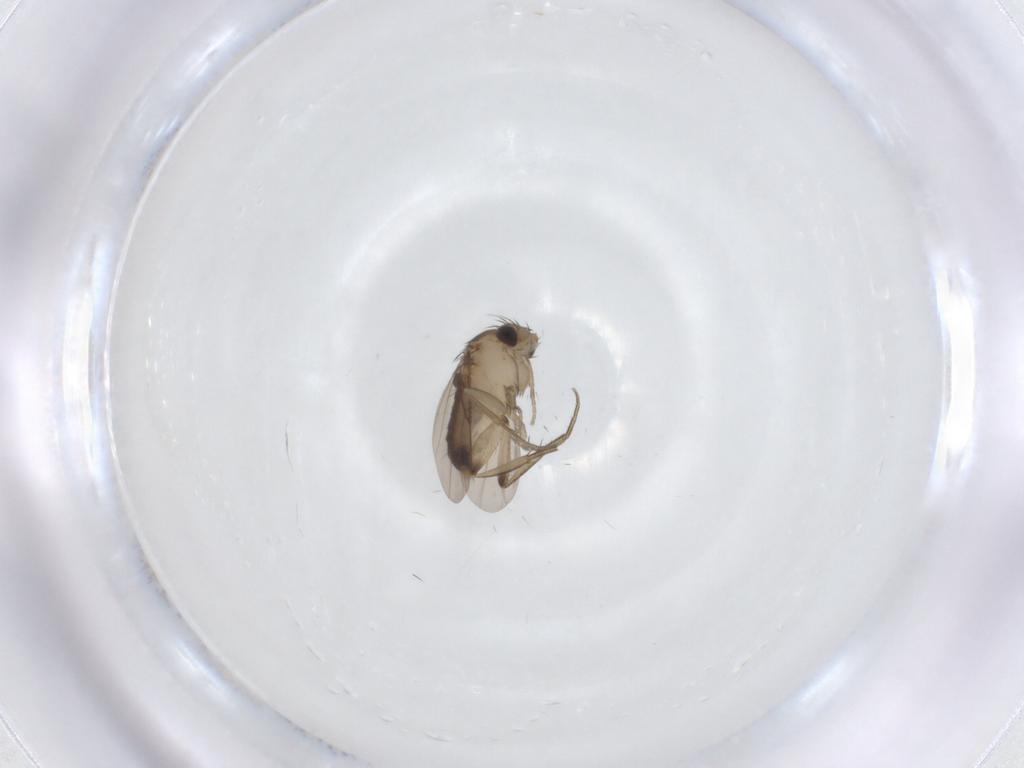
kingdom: Animalia
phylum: Arthropoda
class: Insecta
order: Diptera
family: Phoridae
